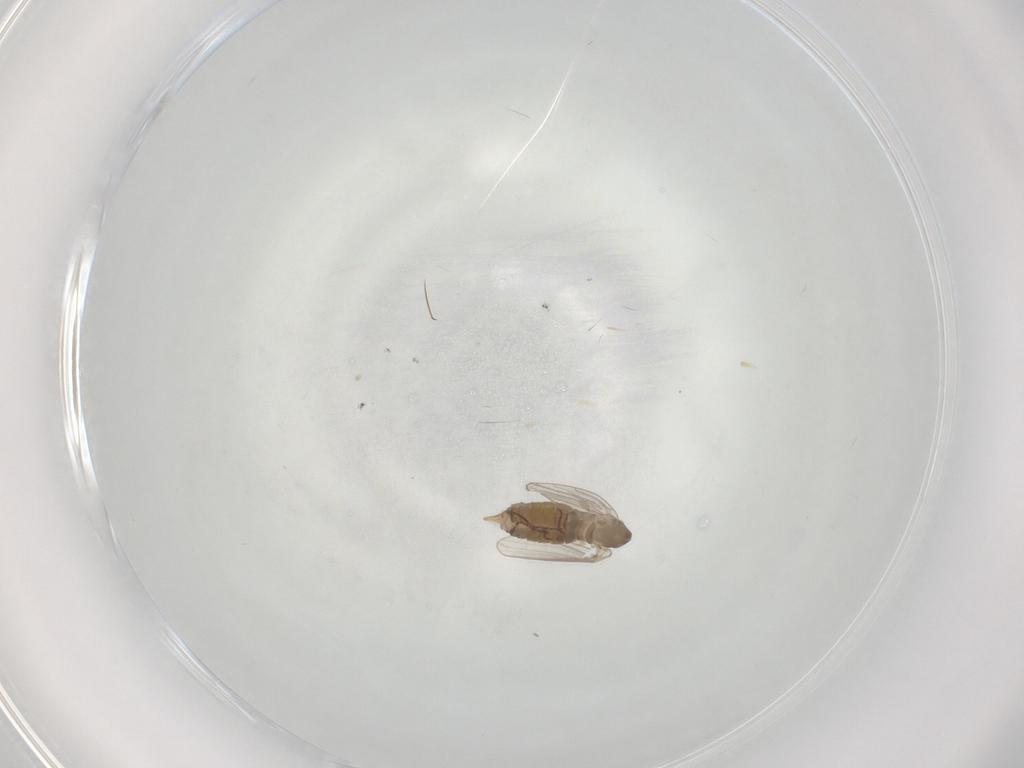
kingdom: Animalia
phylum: Arthropoda
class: Insecta
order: Diptera
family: Psychodidae
